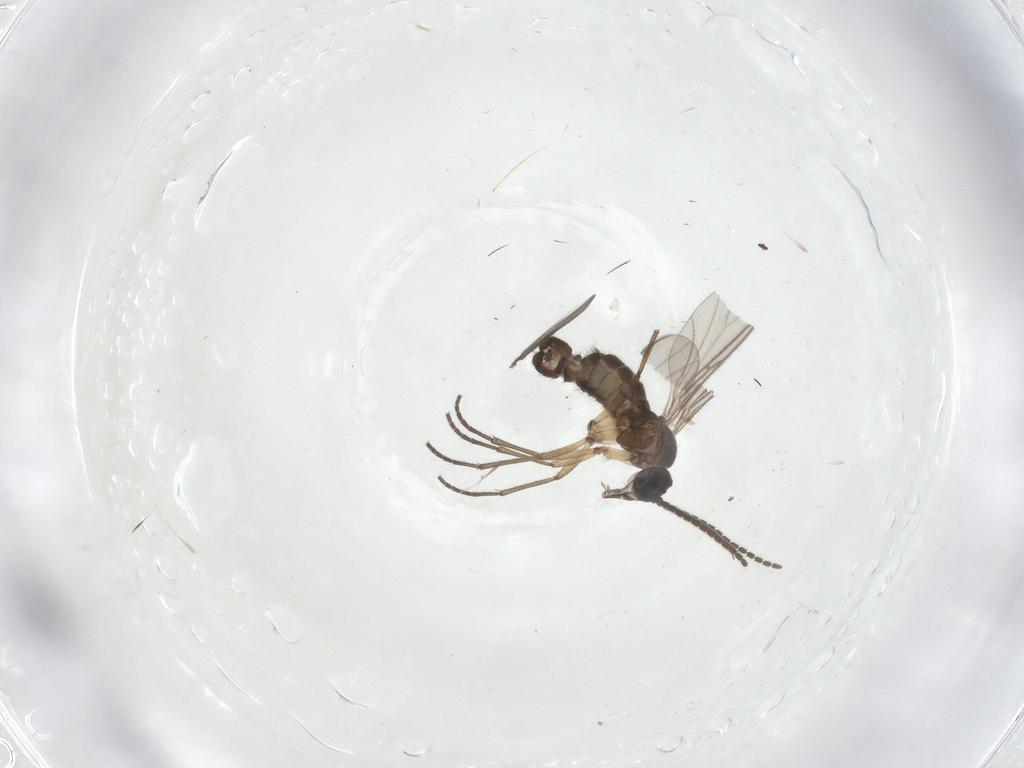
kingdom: Animalia
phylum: Arthropoda
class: Insecta
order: Diptera
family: Sciaridae
